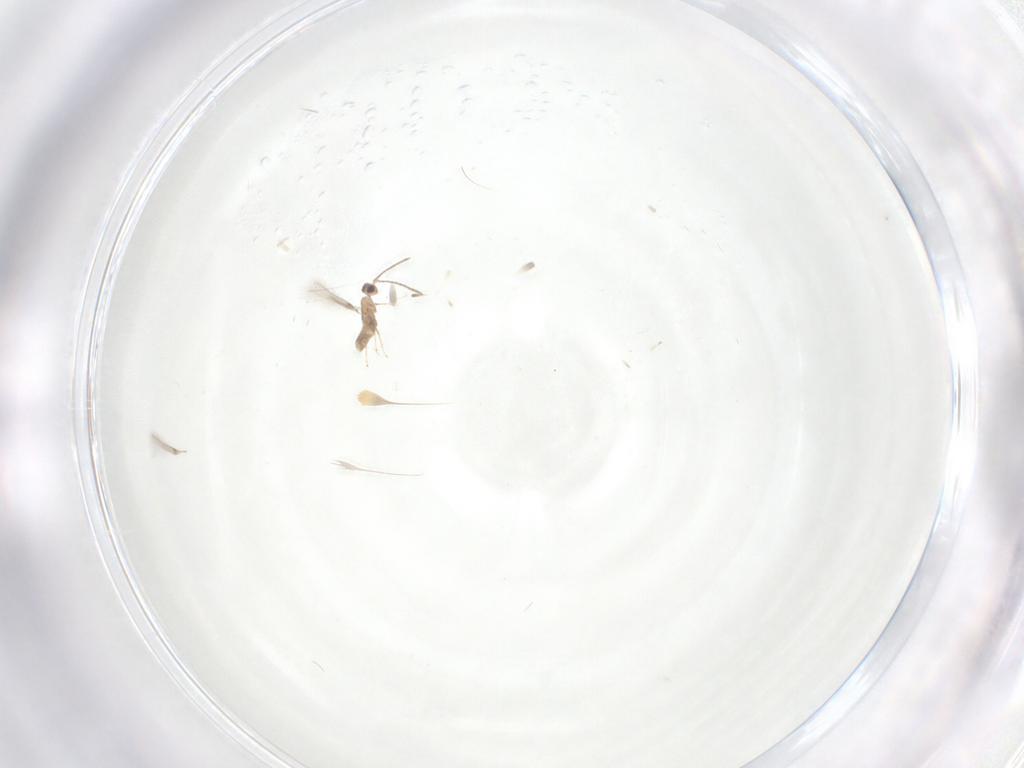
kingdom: Animalia
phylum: Arthropoda
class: Insecta
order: Hymenoptera
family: Mymaridae
